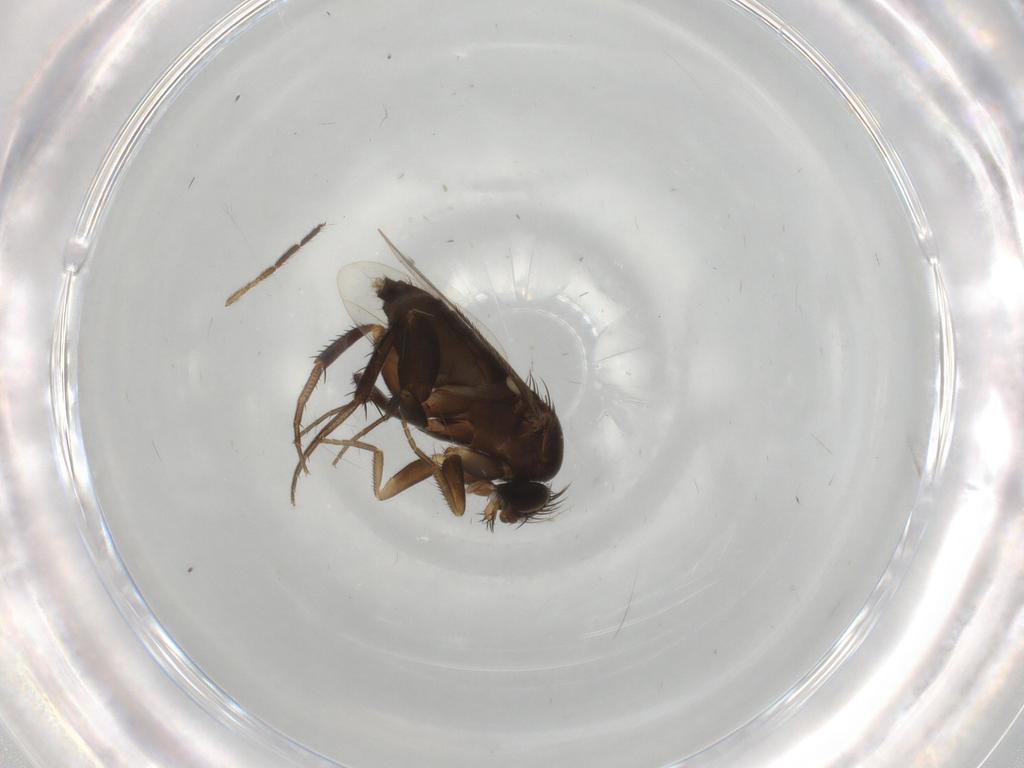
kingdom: Animalia
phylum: Arthropoda
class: Insecta
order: Diptera
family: Phoridae
